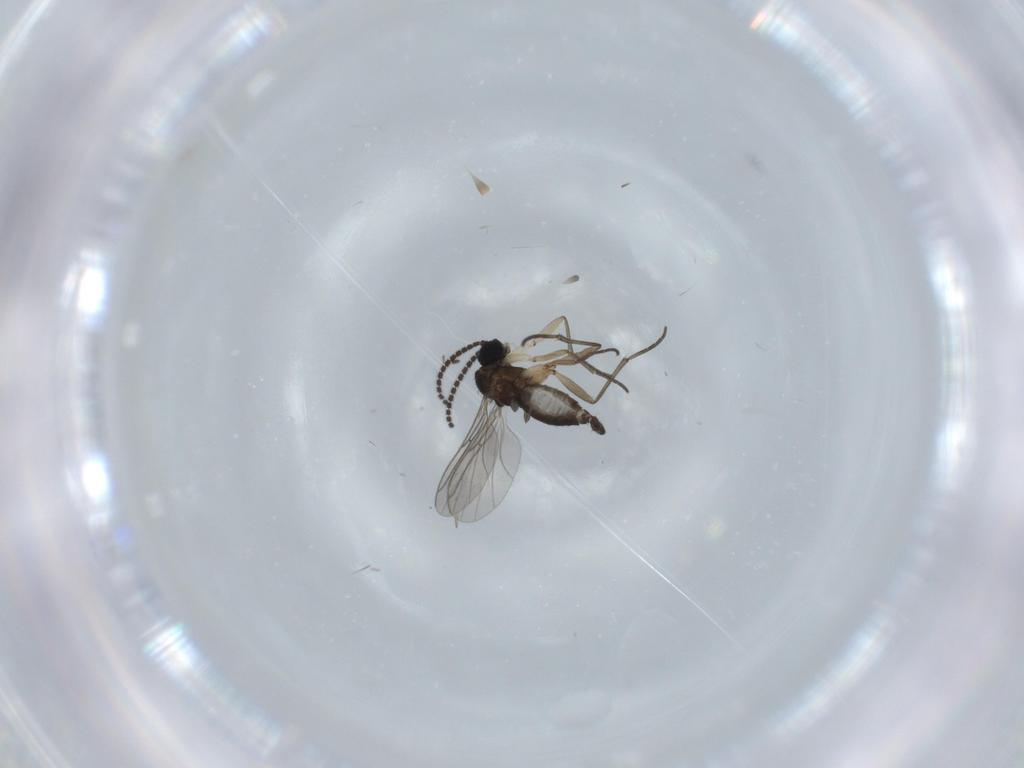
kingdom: Animalia
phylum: Arthropoda
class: Insecta
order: Diptera
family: Sciaridae
